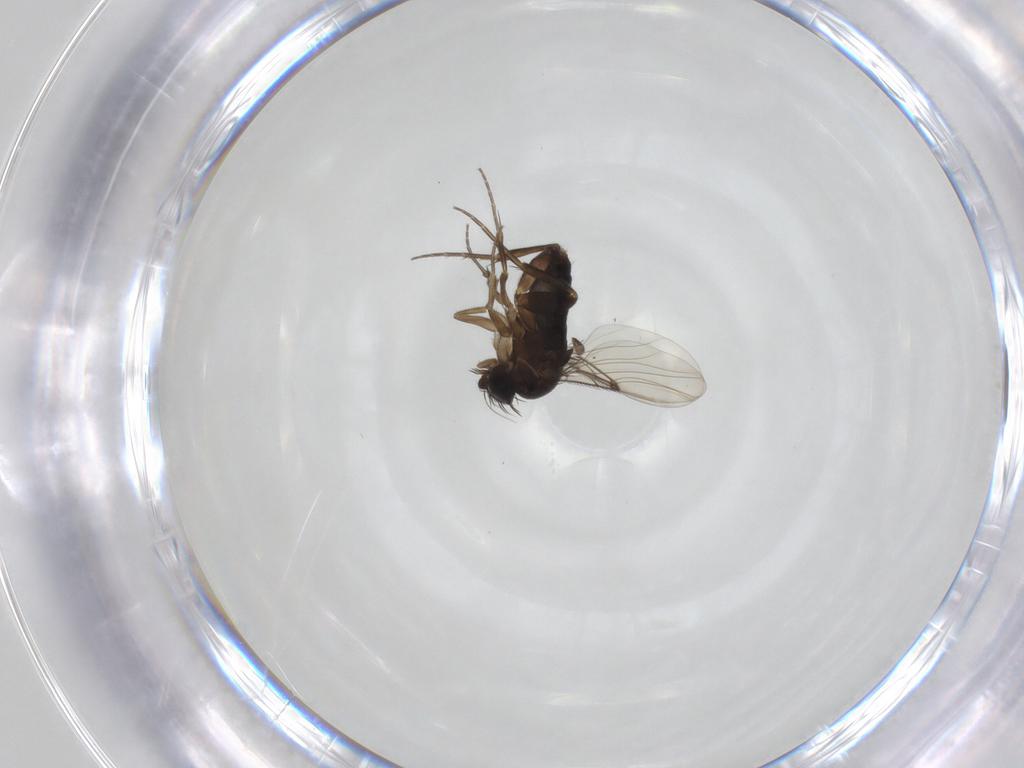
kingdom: Animalia
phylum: Arthropoda
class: Insecta
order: Diptera
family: Phoridae
